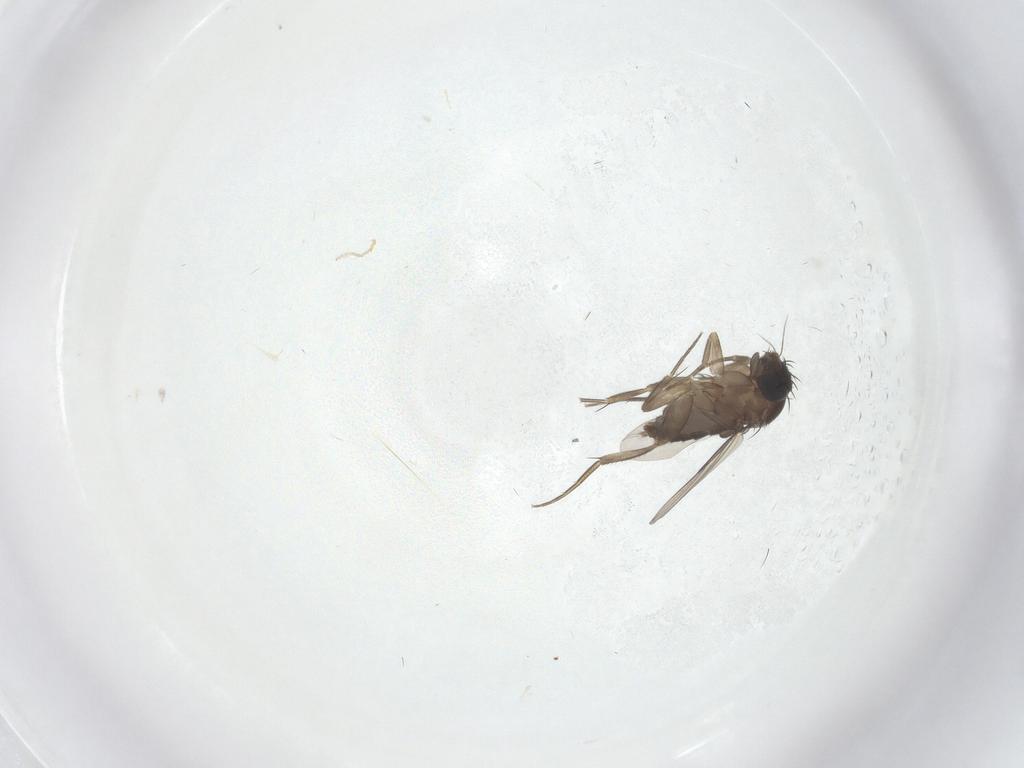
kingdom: Animalia
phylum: Arthropoda
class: Insecta
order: Diptera
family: Phoridae
